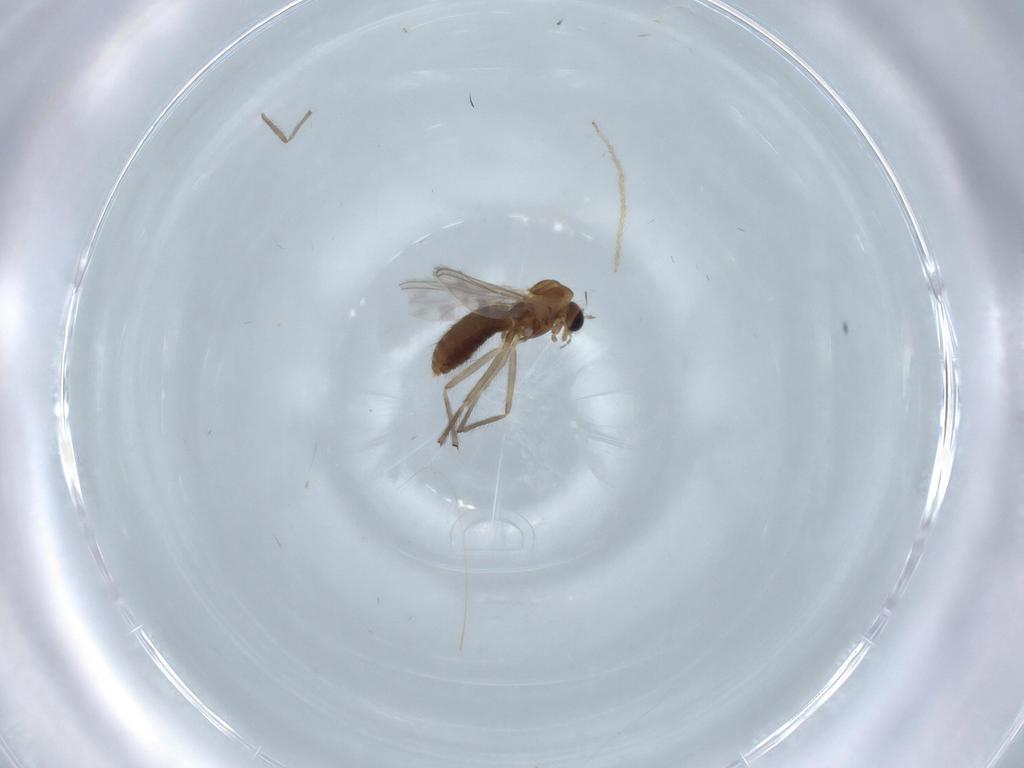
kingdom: Animalia
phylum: Arthropoda
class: Insecta
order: Diptera
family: Chironomidae
